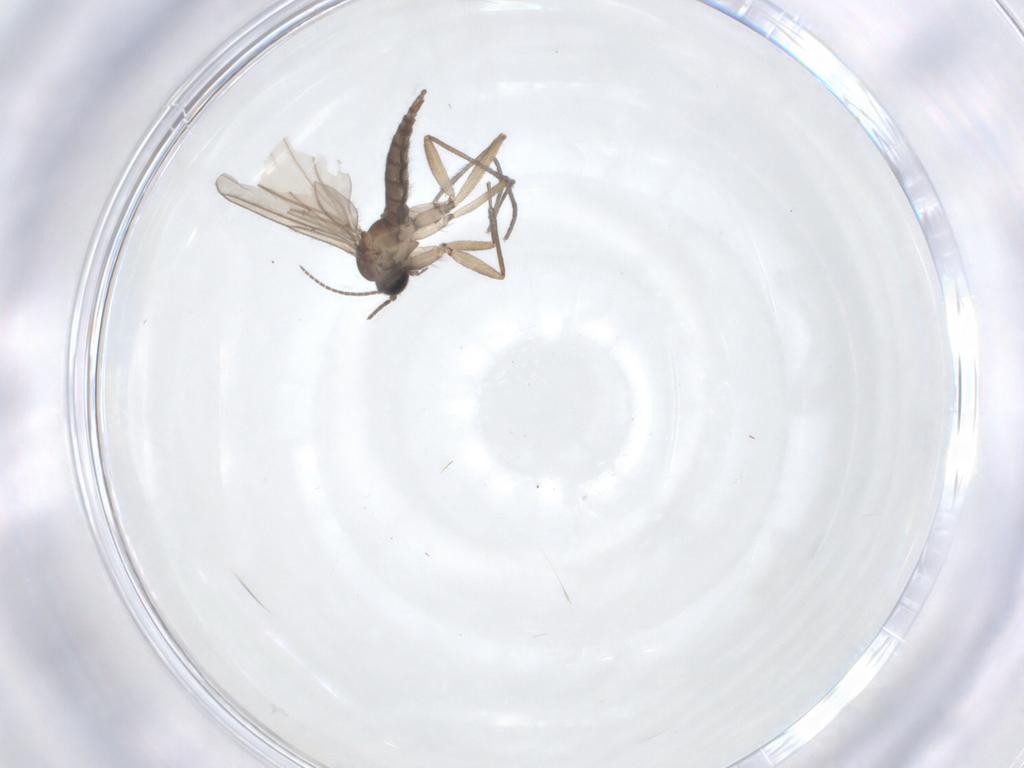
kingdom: Animalia
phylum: Arthropoda
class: Insecta
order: Diptera
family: Sciaridae
